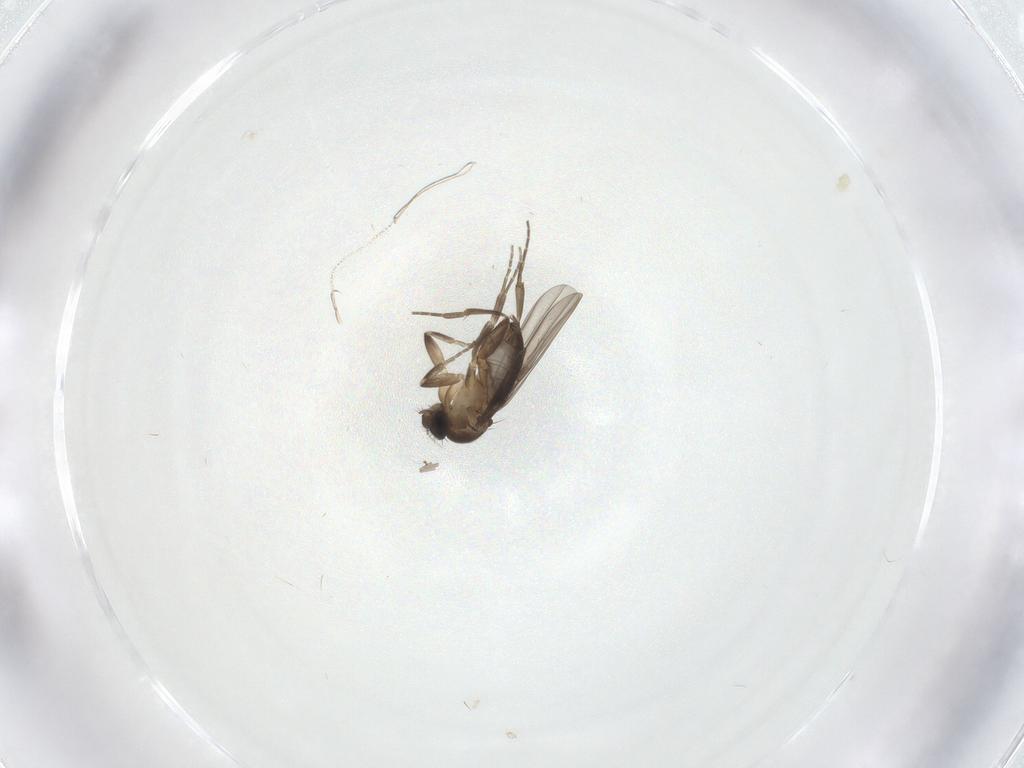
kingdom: Animalia
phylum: Arthropoda
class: Insecta
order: Diptera
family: Phoridae
